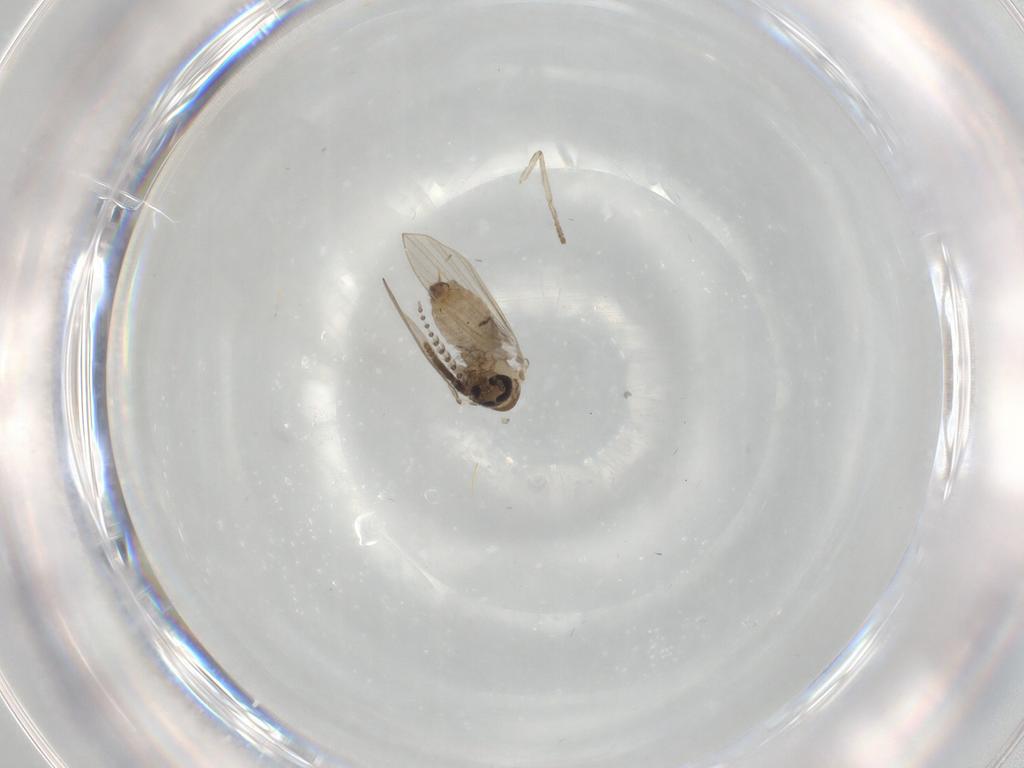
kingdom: Animalia
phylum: Arthropoda
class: Insecta
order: Diptera
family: Psychodidae
